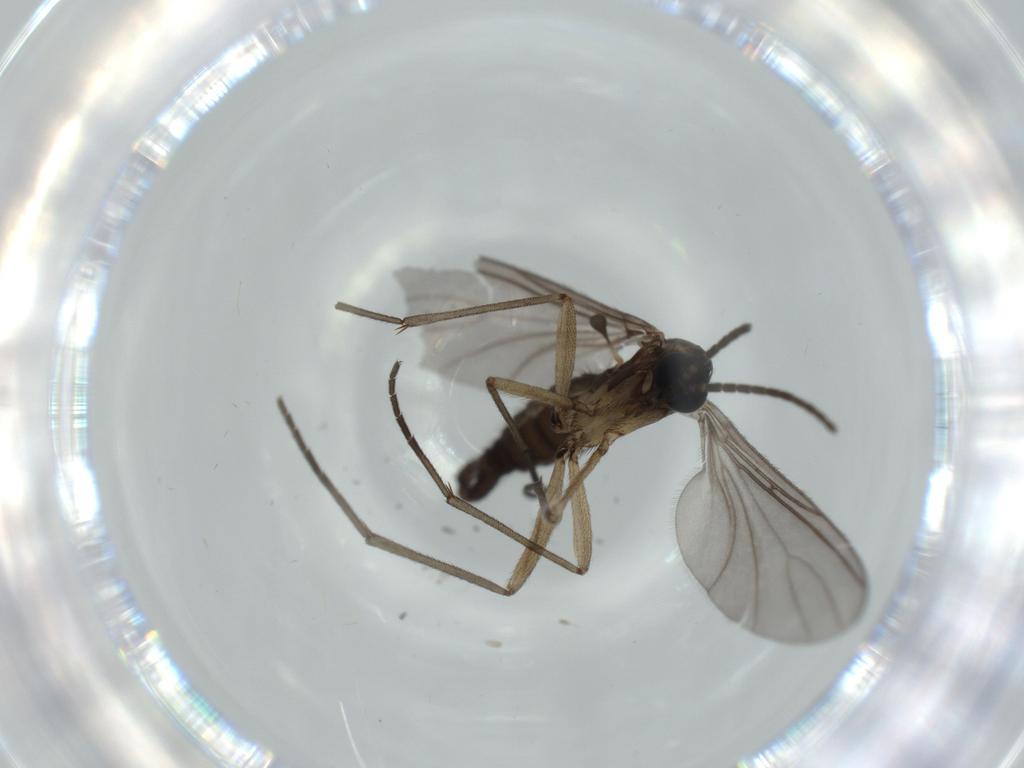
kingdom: Animalia
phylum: Arthropoda
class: Insecta
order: Diptera
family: Sciaridae
